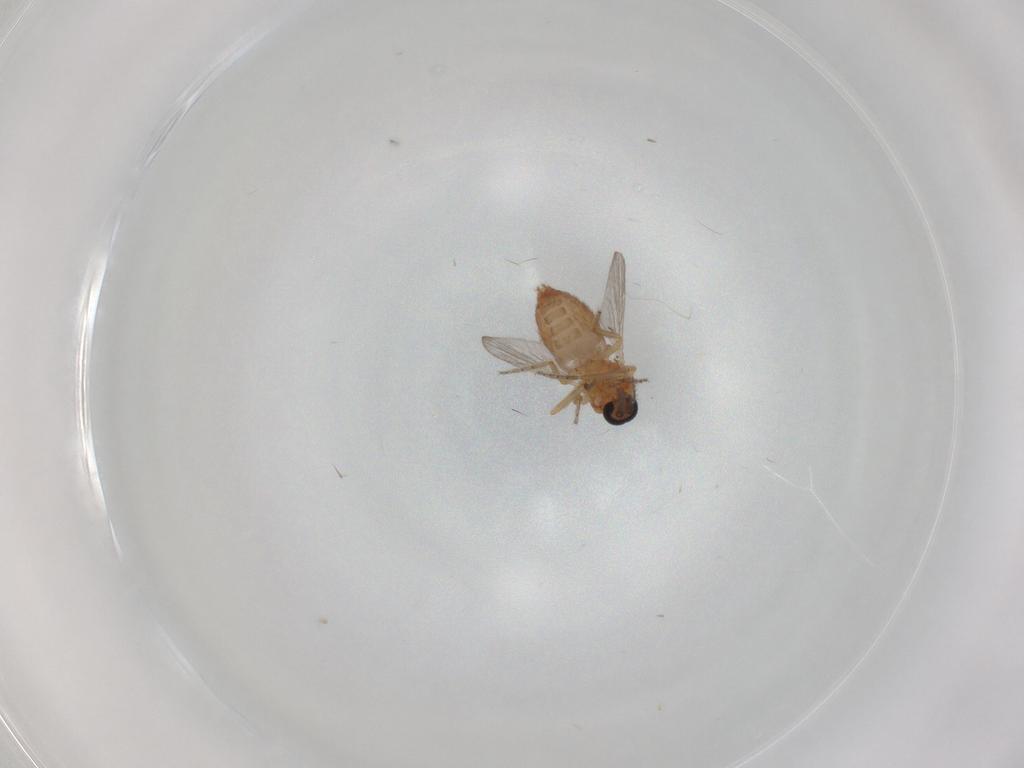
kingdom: Animalia
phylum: Arthropoda
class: Insecta
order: Diptera
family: Ceratopogonidae
